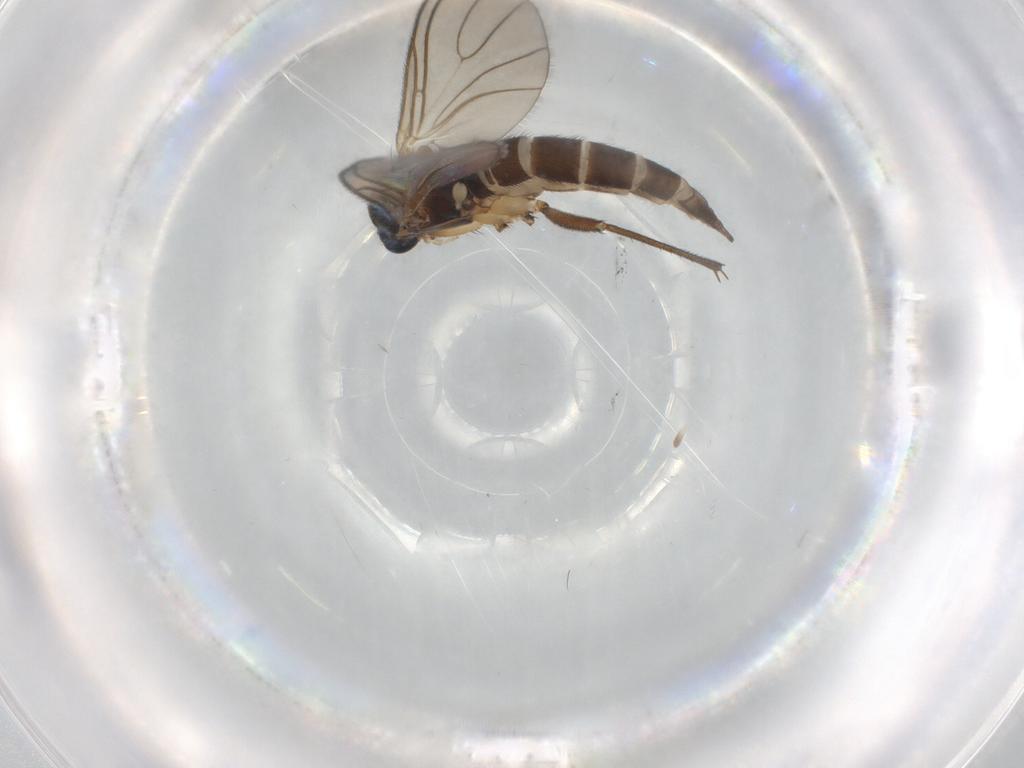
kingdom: Animalia
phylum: Arthropoda
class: Insecta
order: Diptera
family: Sciaridae
